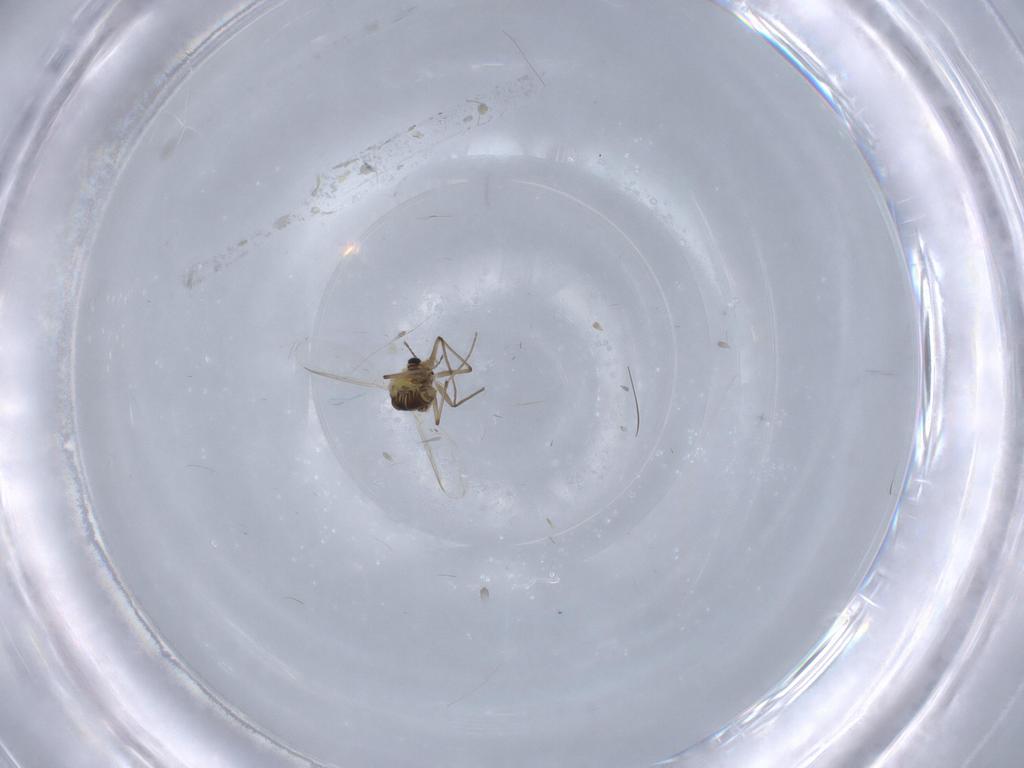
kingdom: Animalia
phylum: Arthropoda
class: Insecta
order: Diptera
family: Chironomidae
